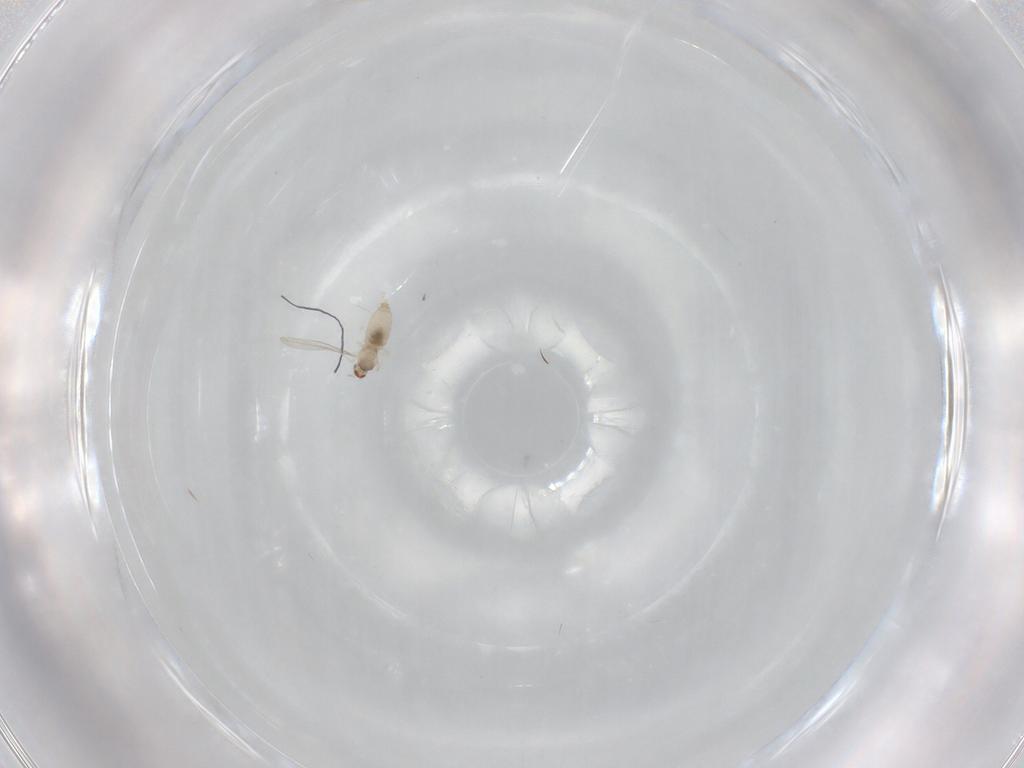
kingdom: Animalia
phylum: Arthropoda
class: Insecta
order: Diptera
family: Cecidomyiidae
